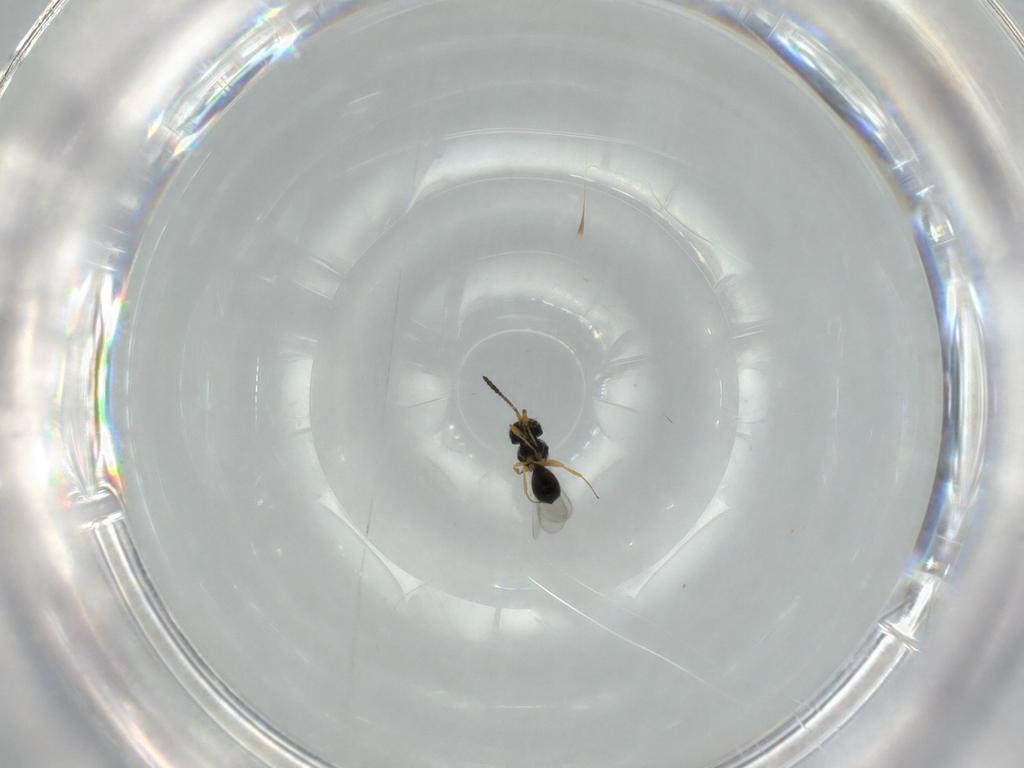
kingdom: Animalia
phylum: Arthropoda
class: Insecta
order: Hymenoptera
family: Scelionidae
